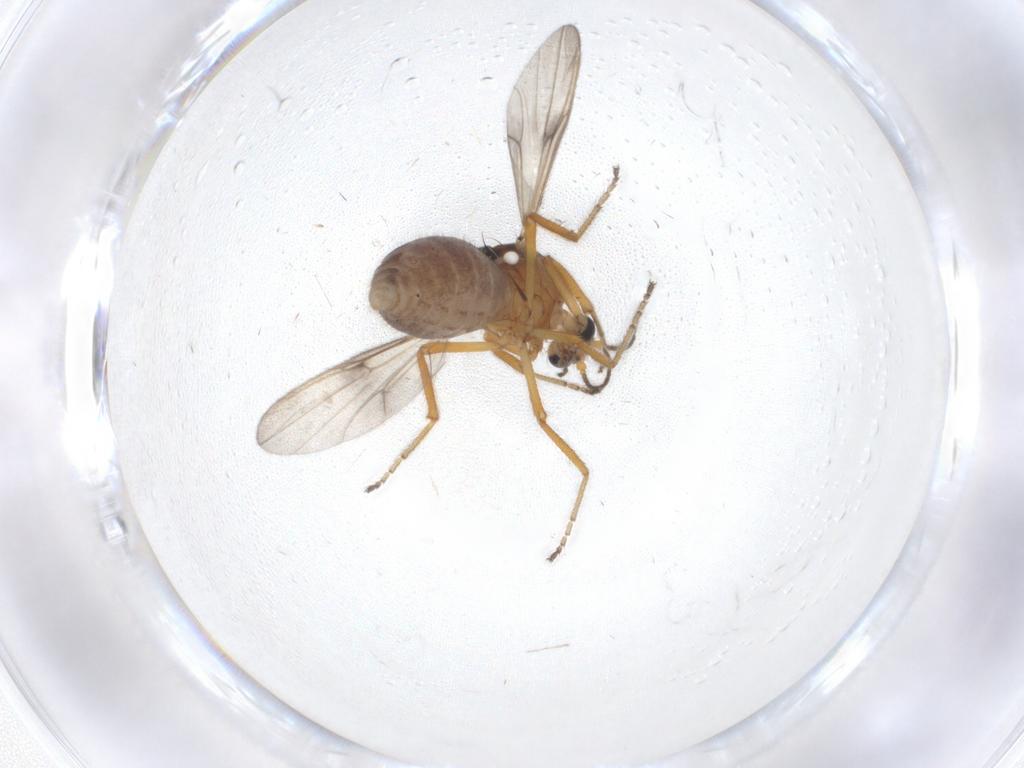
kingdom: Animalia
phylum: Arthropoda
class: Insecta
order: Diptera
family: Ceratopogonidae
